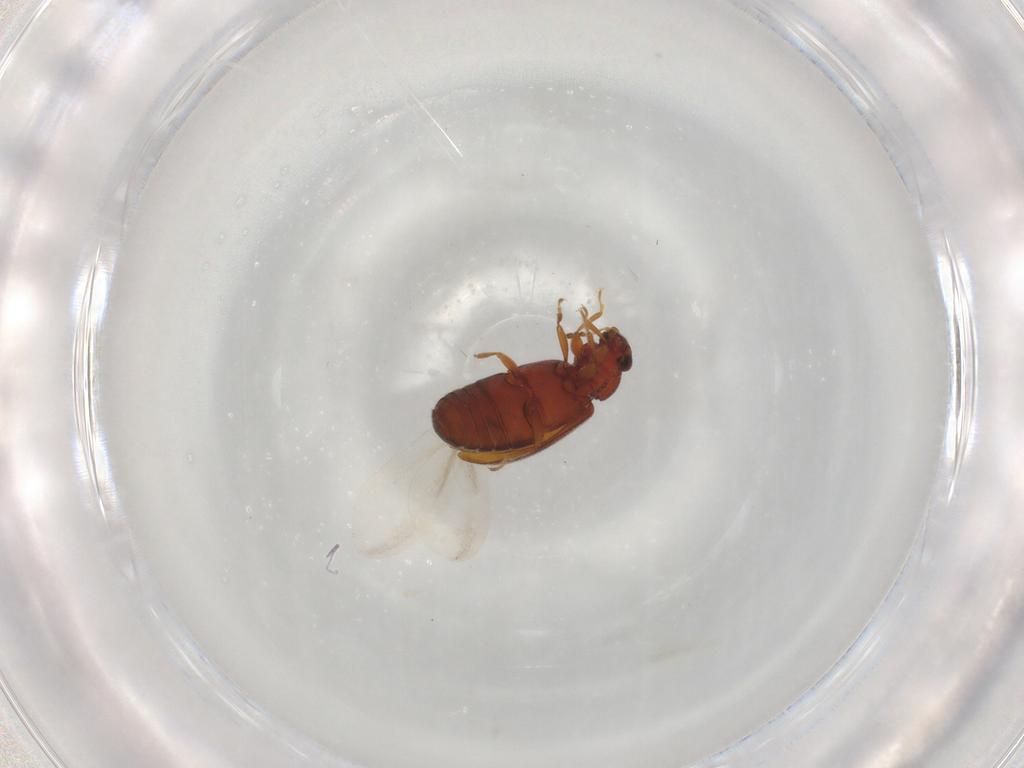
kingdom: Animalia
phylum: Arthropoda
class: Insecta
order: Coleoptera
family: Latridiidae
